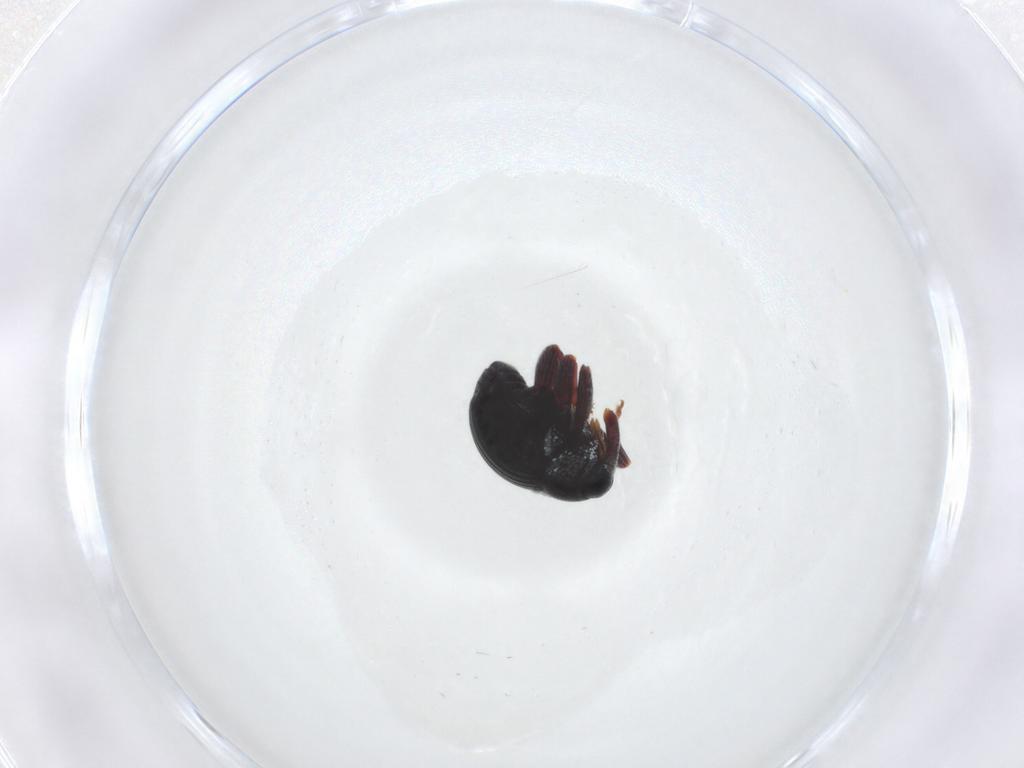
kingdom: Animalia
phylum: Arthropoda
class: Insecta
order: Coleoptera
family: Curculionidae
